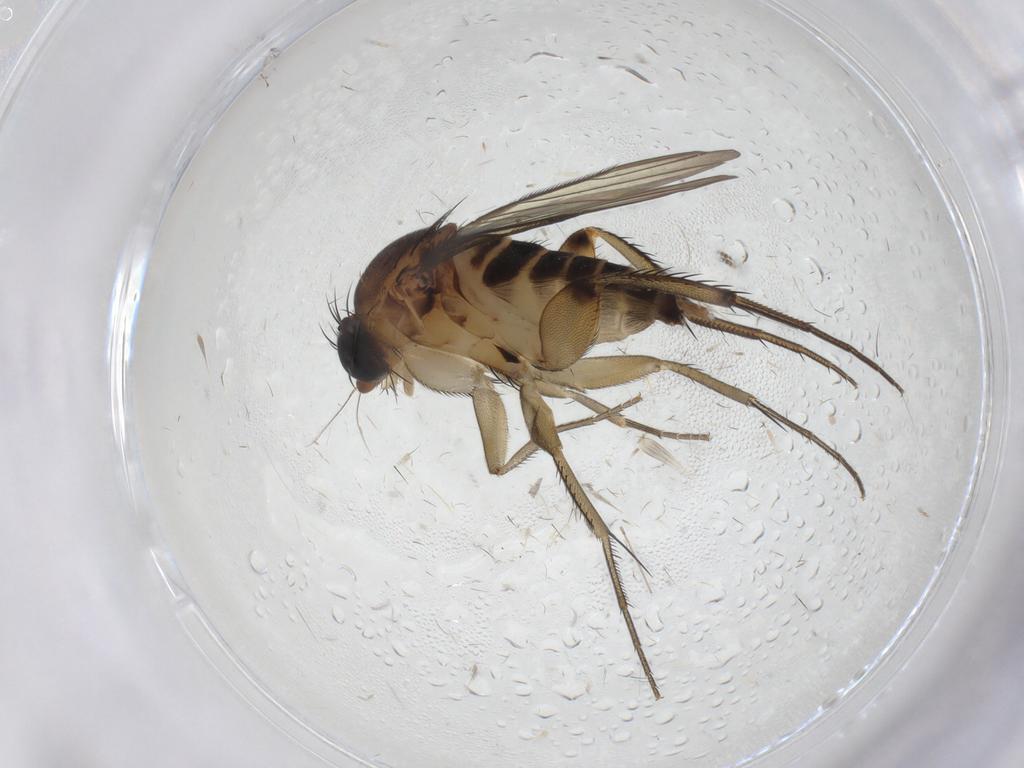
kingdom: Animalia
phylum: Arthropoda
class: Insecta
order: Diptera
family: Phoridae
